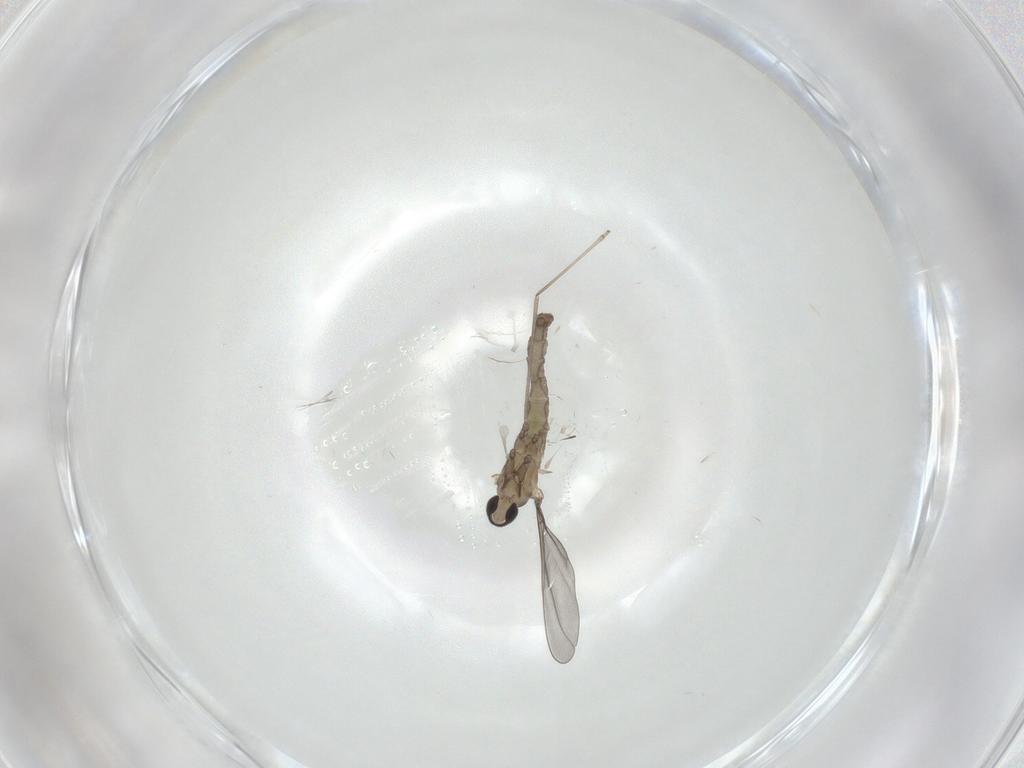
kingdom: Animalia
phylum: Arthropoda
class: Insecta
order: Diptera
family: Cecidomyiidae
